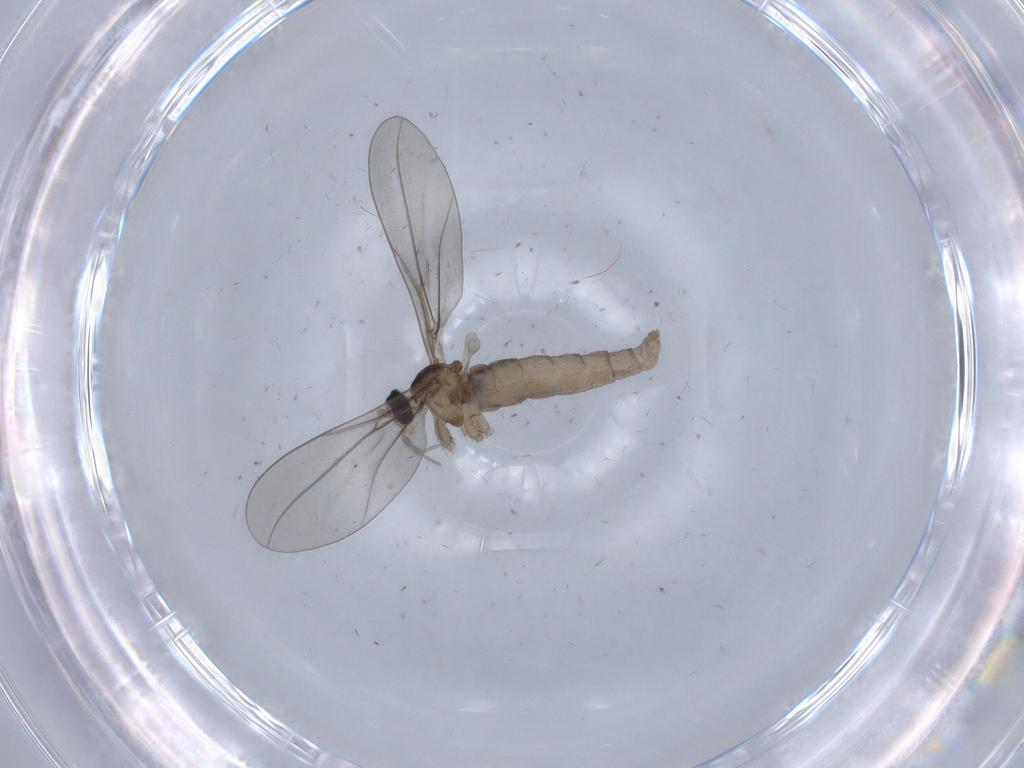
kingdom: Animalia
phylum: Arthropoda
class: Insecta
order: Diptera
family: Cecidomyiidae
